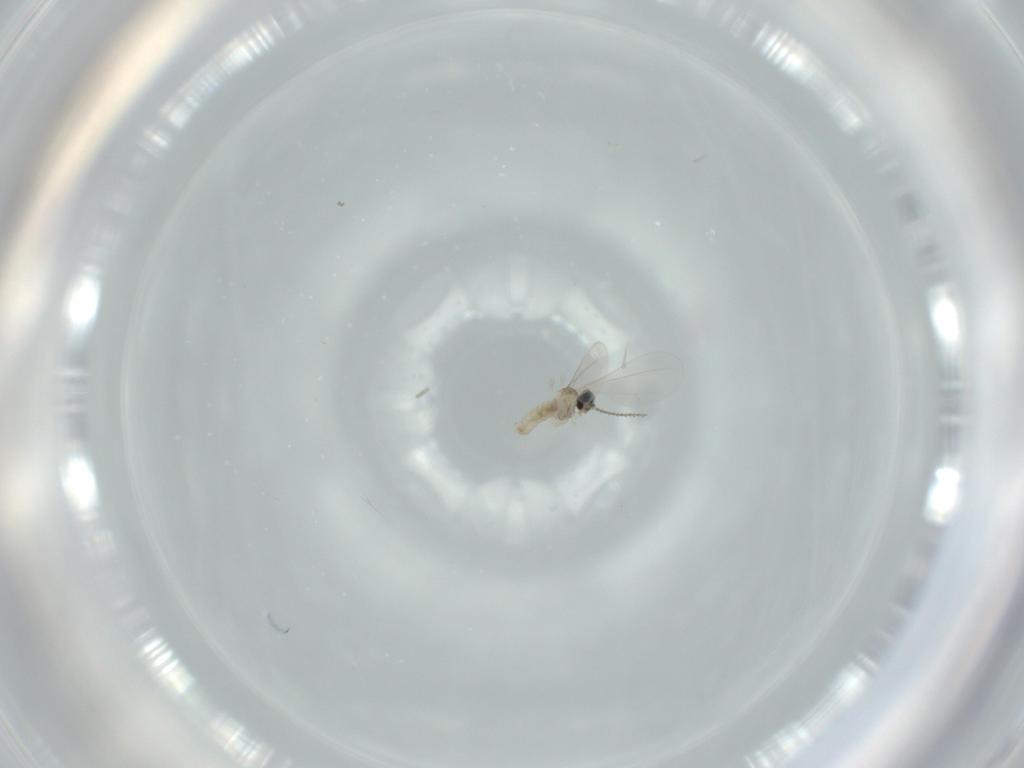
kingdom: Animalia
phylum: Arthropoda
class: Insecta
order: Diptera
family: Cecidomyiidae
